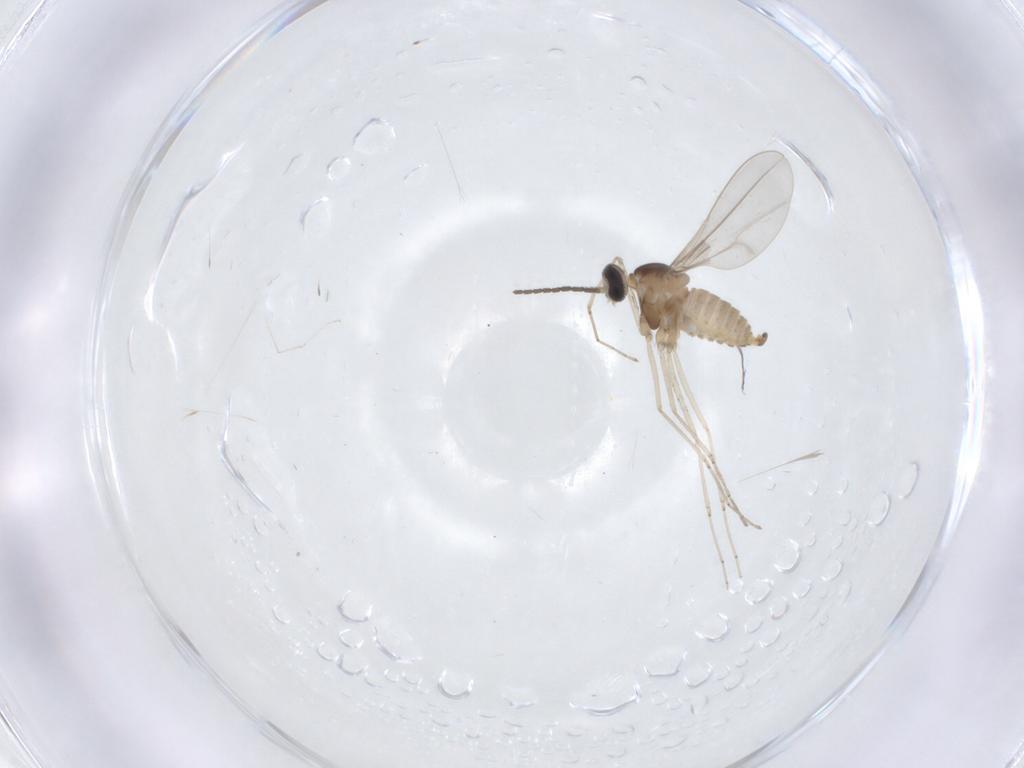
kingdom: Animalia
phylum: Arthropoda
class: Insecta
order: Diptera
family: Cecidomyiidae
